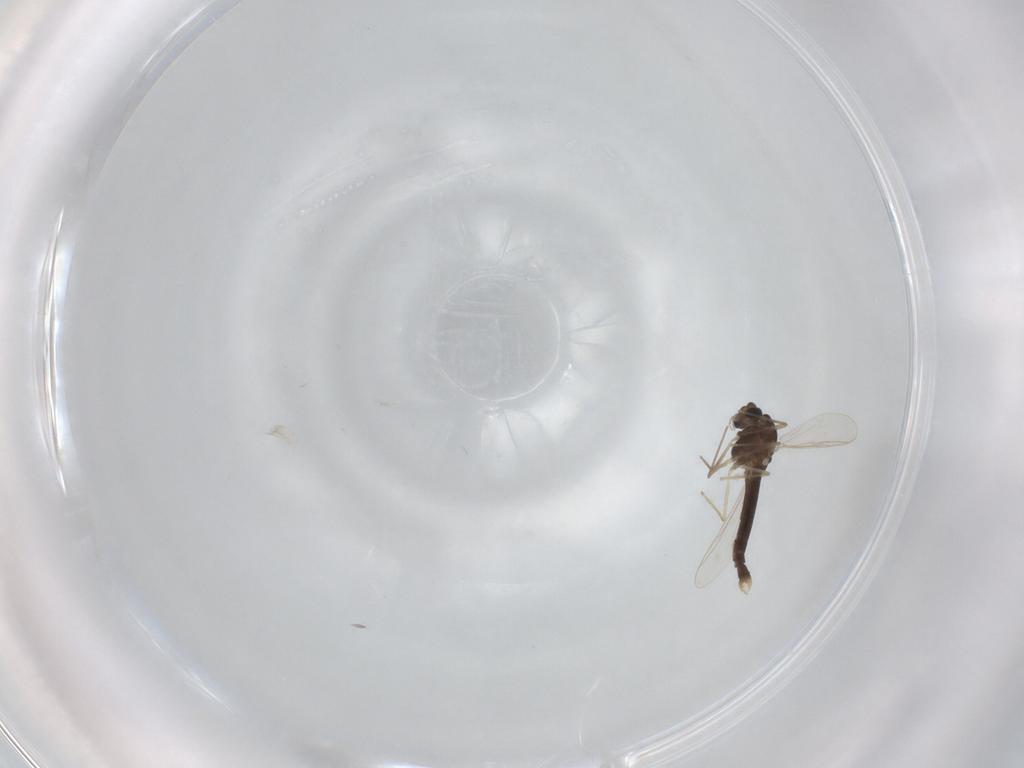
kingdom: Animalia
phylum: Arthropoda
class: Insecta
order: Diptera
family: Chironomidae
